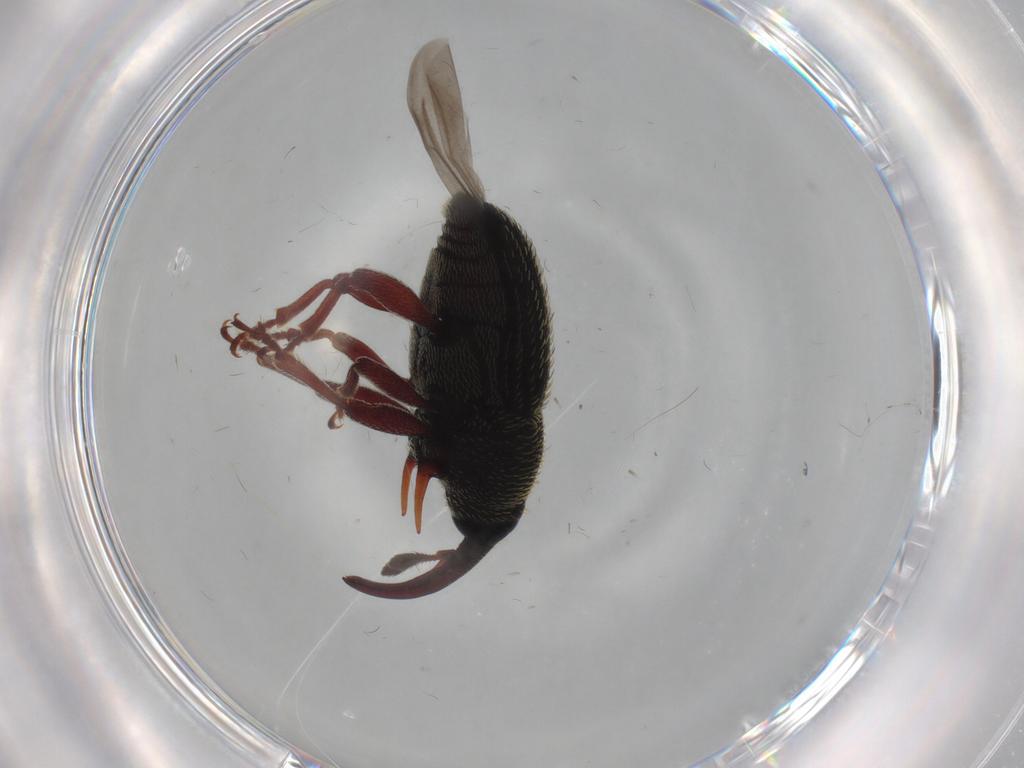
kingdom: Animalia
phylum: Arthropoda
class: Insecta
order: Coleoptera
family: Curculionidae
